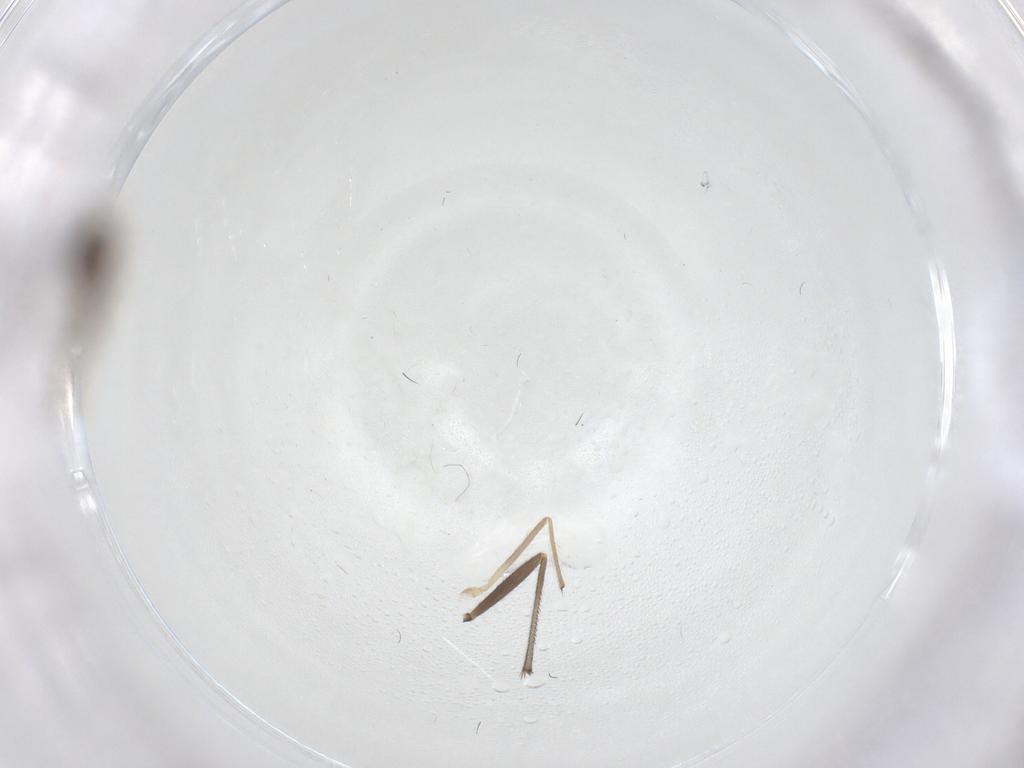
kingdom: Animalia
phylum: Arthropoda
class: Insecta
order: Diptera
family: Chironomidae
